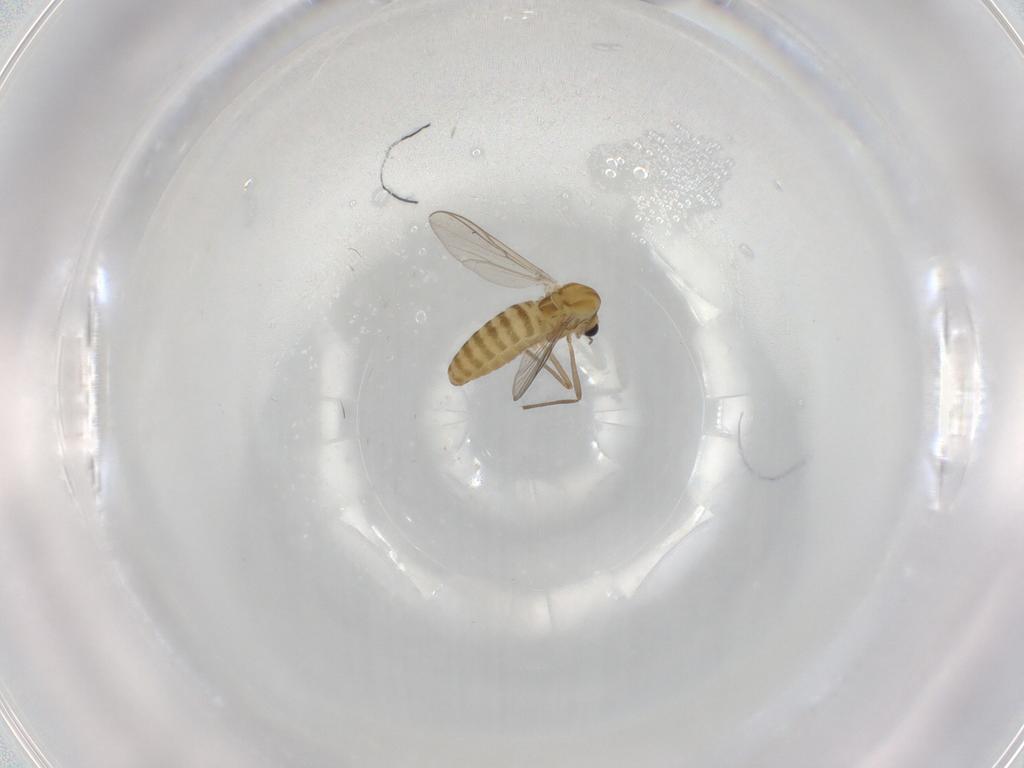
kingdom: Animalia
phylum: Arthropoda
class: Insecta
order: Diptera
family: Chironomidae
